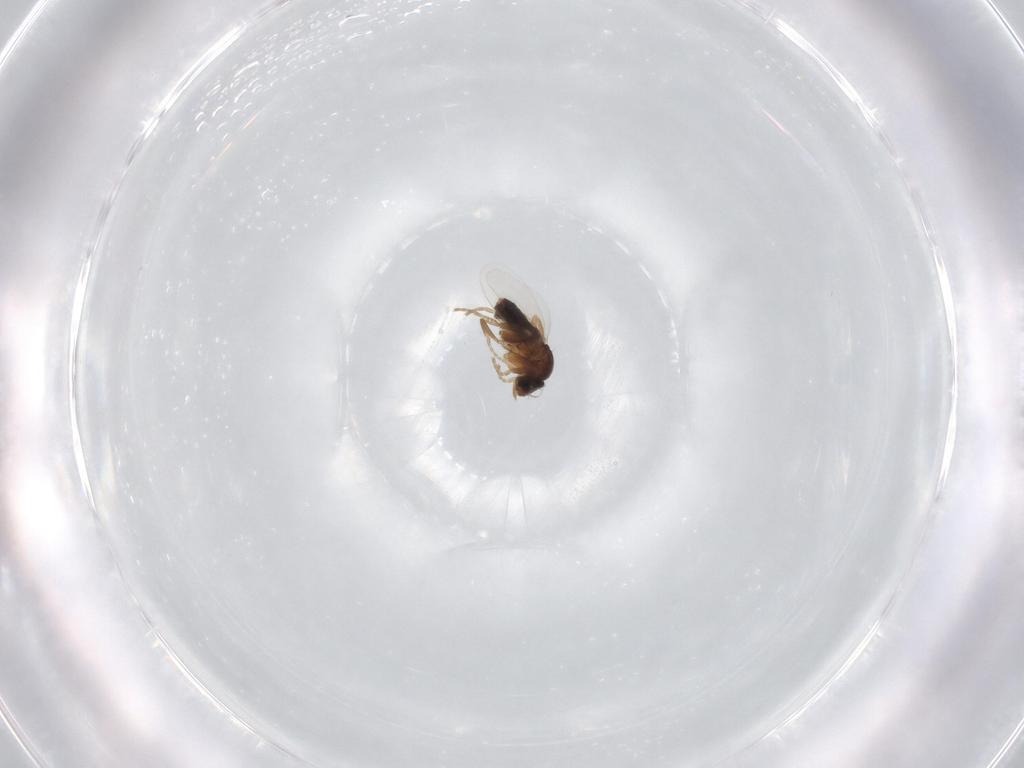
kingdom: Animalia
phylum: Arthropoda
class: Insecta
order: Diptera
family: Phoridae
